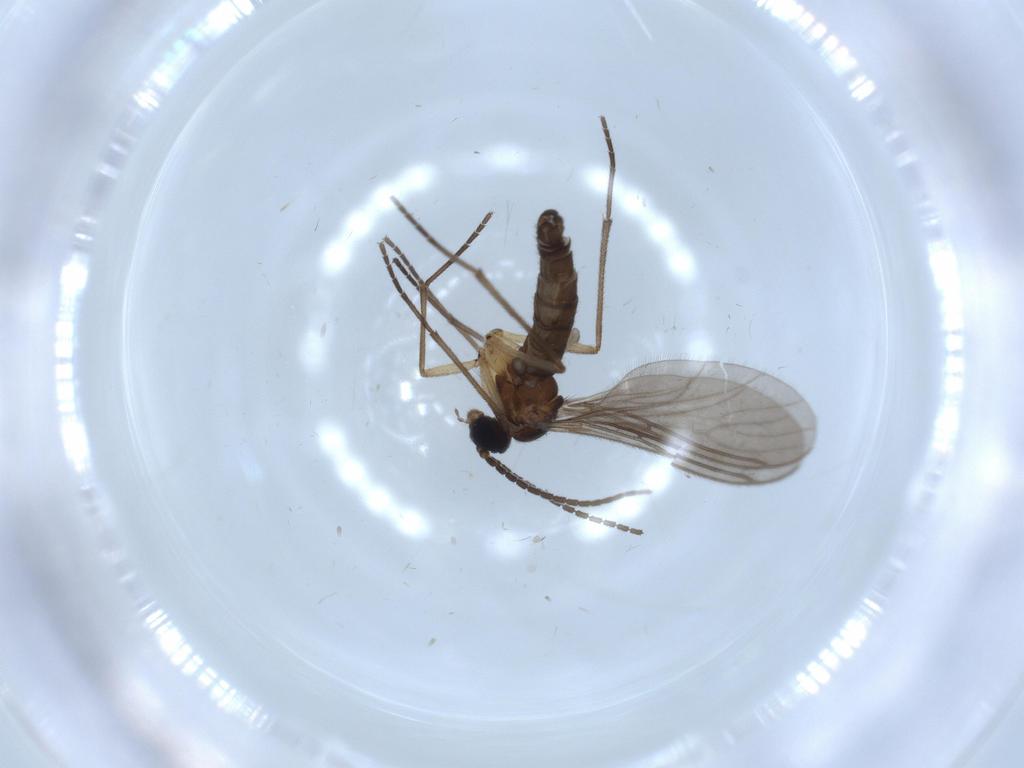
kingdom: Animalia
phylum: Arthropoda
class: Insecta
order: Diptera
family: Sciaridae
